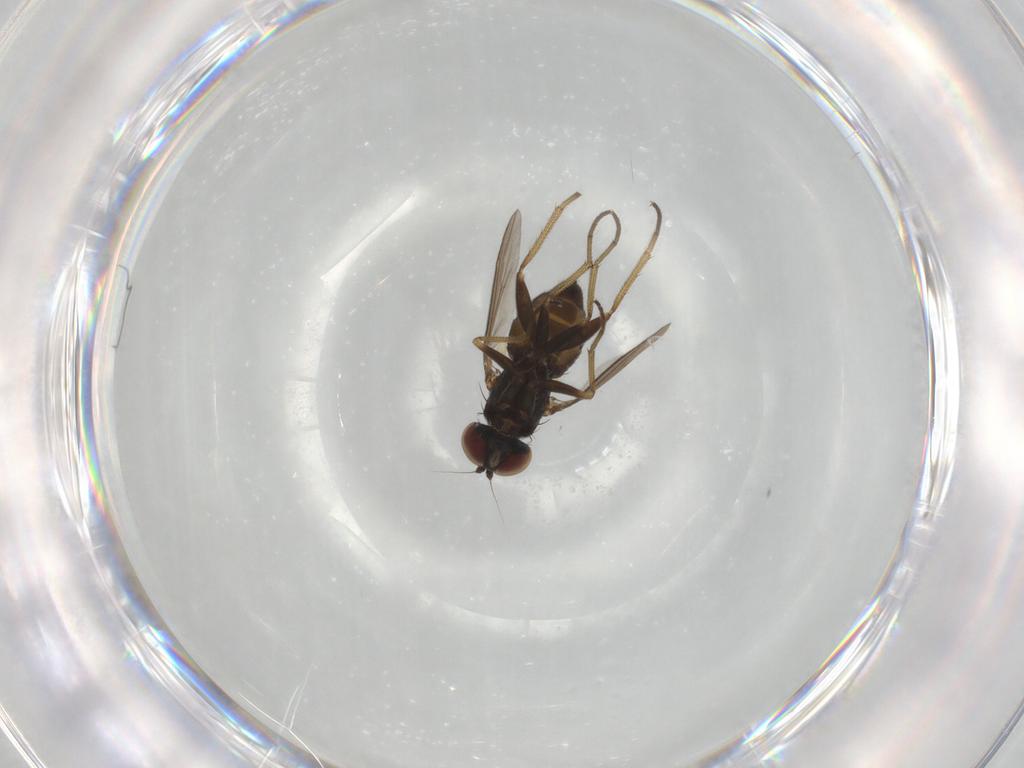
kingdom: Animalia
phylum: Arthropoda
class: Insecta
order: Diptera
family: Dolichopodidae
